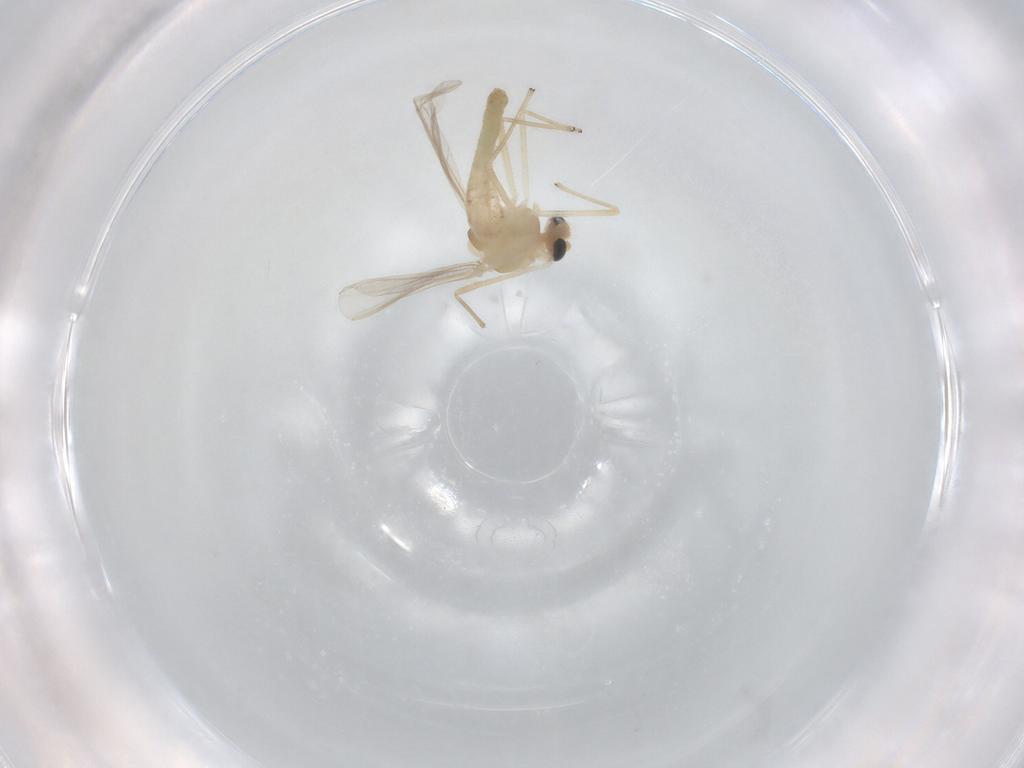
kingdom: Animalia
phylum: Arthropoda
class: Insecta
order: Diptera
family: Chironomidae
